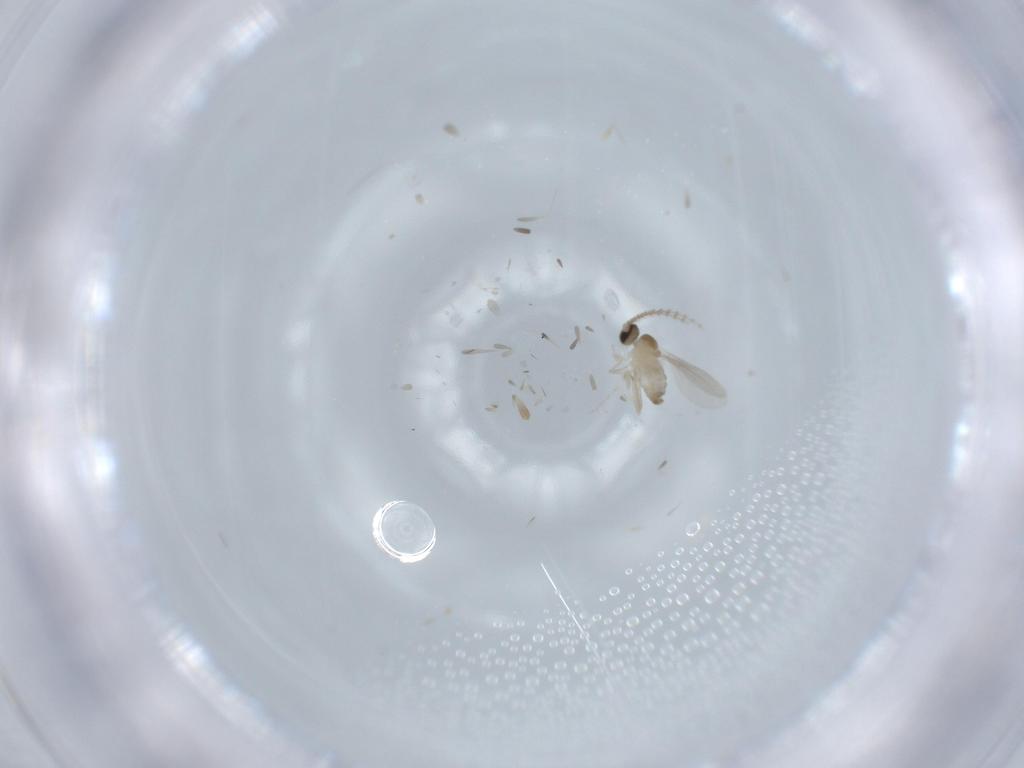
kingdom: Animalia
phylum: Arthropoda
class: Insecta
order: Diptera
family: Cecidomyiidae
